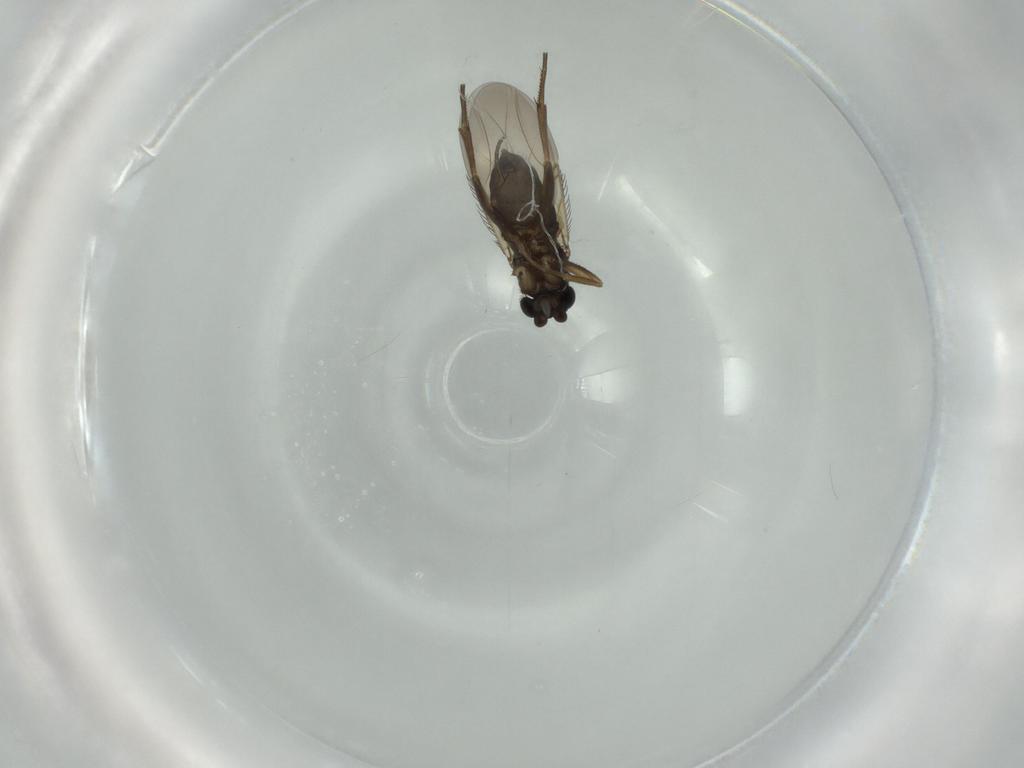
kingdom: Animalia
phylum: Arthropoda
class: Insecta
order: Diptera
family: Phoridae
